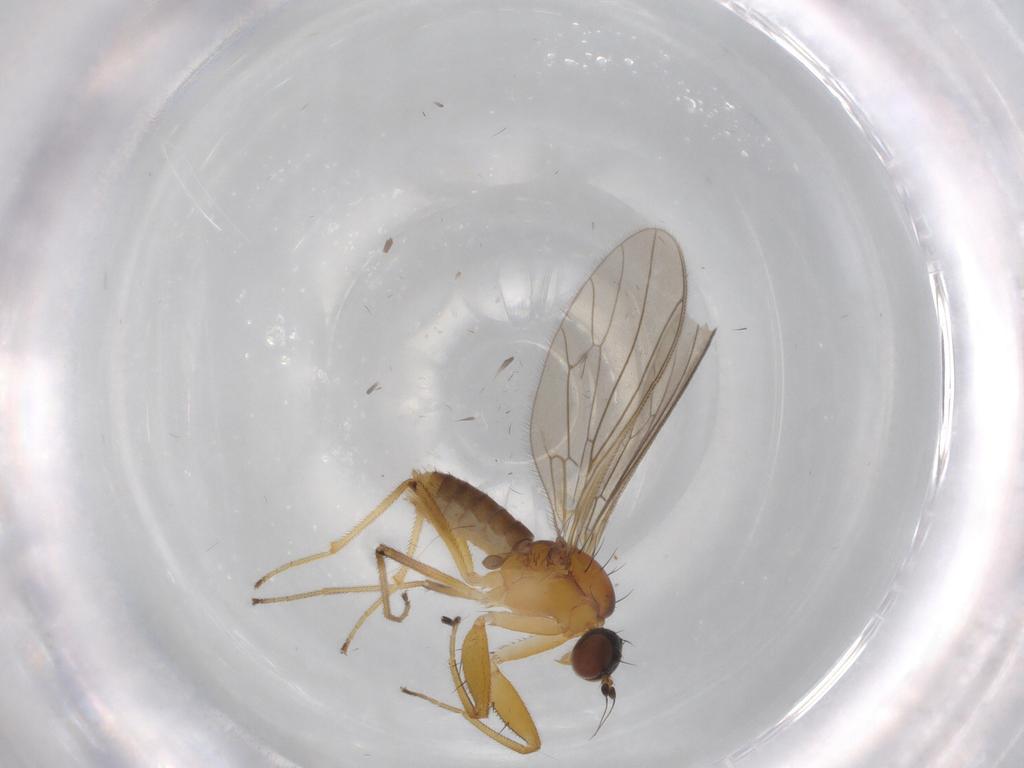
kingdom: Animalia
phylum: Arthropoda
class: Insecta
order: Diptera
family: Empididae
